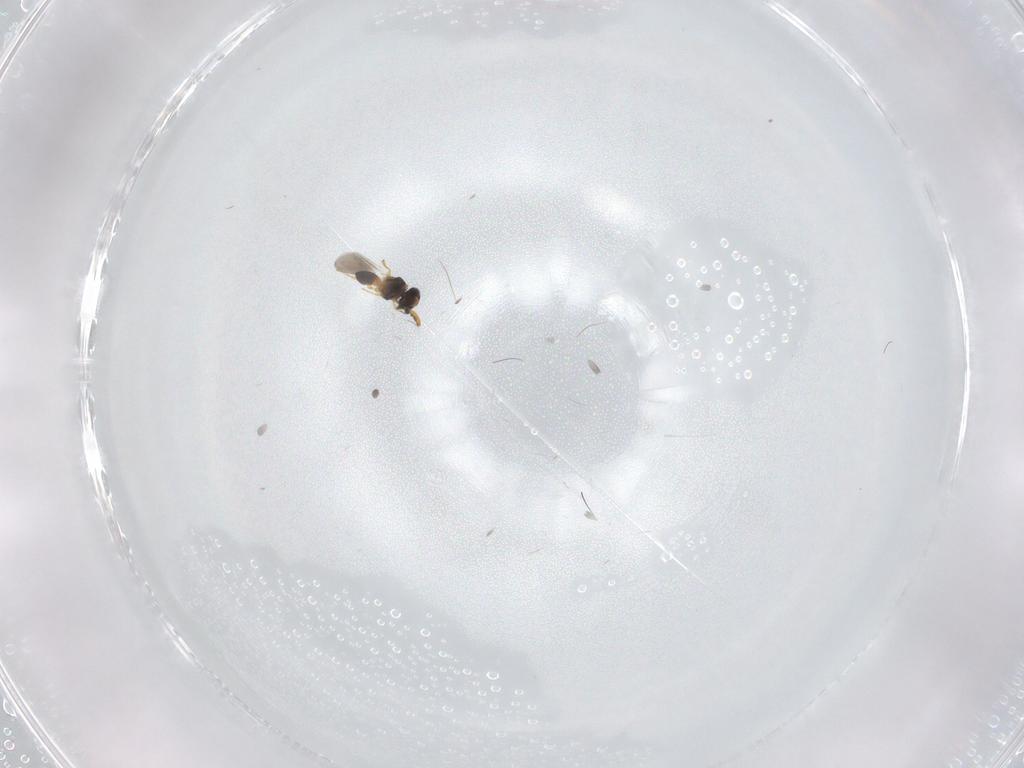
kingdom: Animalia
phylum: Arthropoda
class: Insecta
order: Hymenoptera
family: Platygastridae
